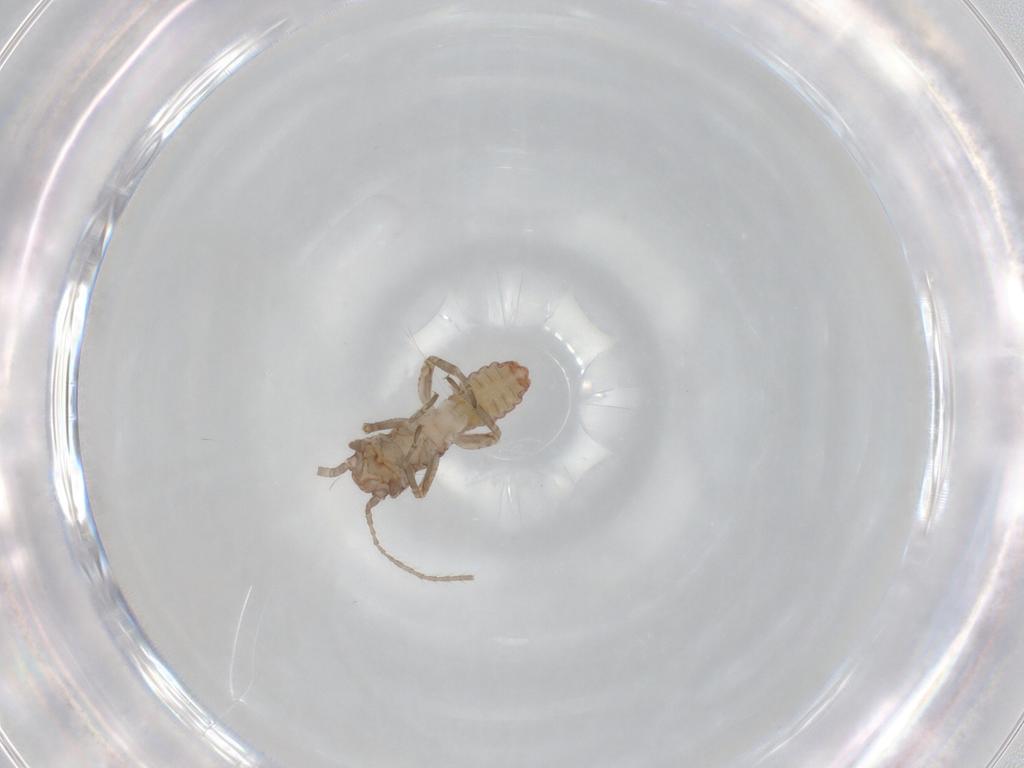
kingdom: Animalia
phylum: Arthropoda
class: Insecta
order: Orthoptera
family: Mogoplistidae
